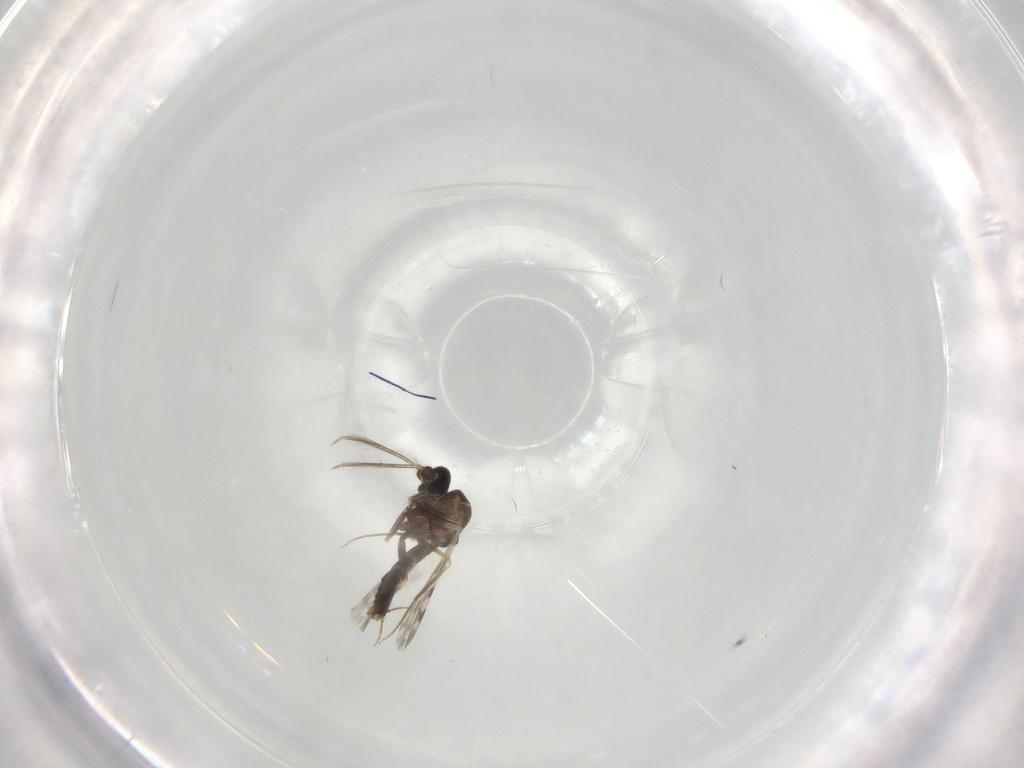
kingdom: Animalia
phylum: Arthropoda
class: Insecta
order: Diptera
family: Ceratopogonidae
